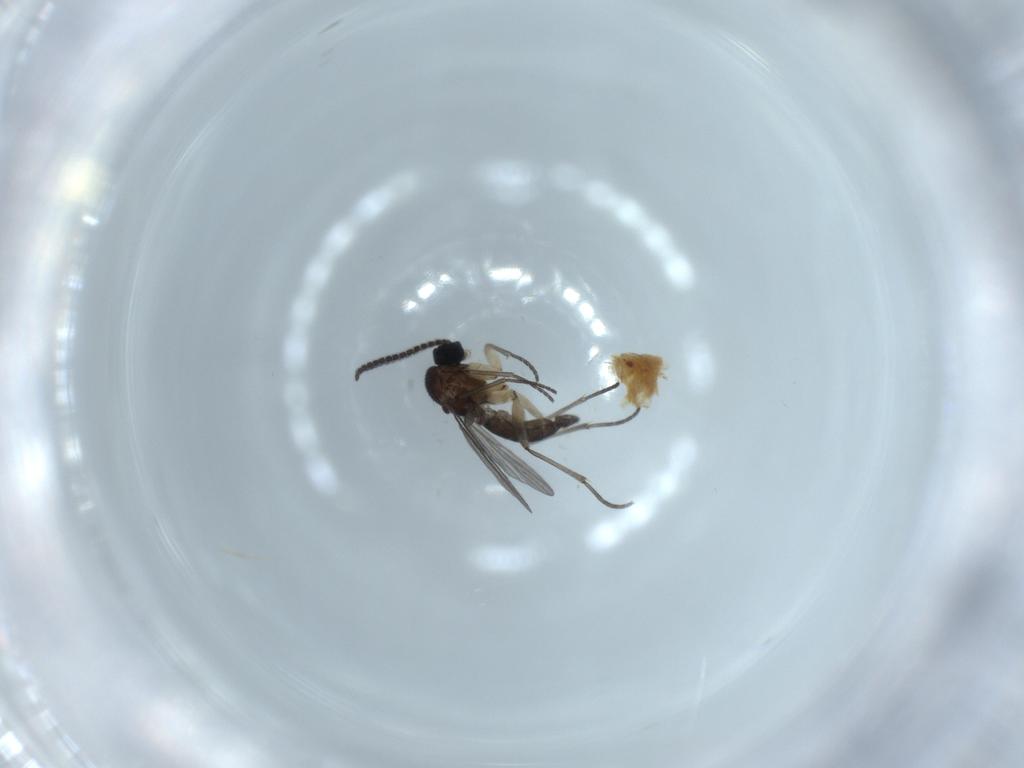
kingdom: Animalia
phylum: Arthropoda
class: Insecta
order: Diptera
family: Sciaridae
